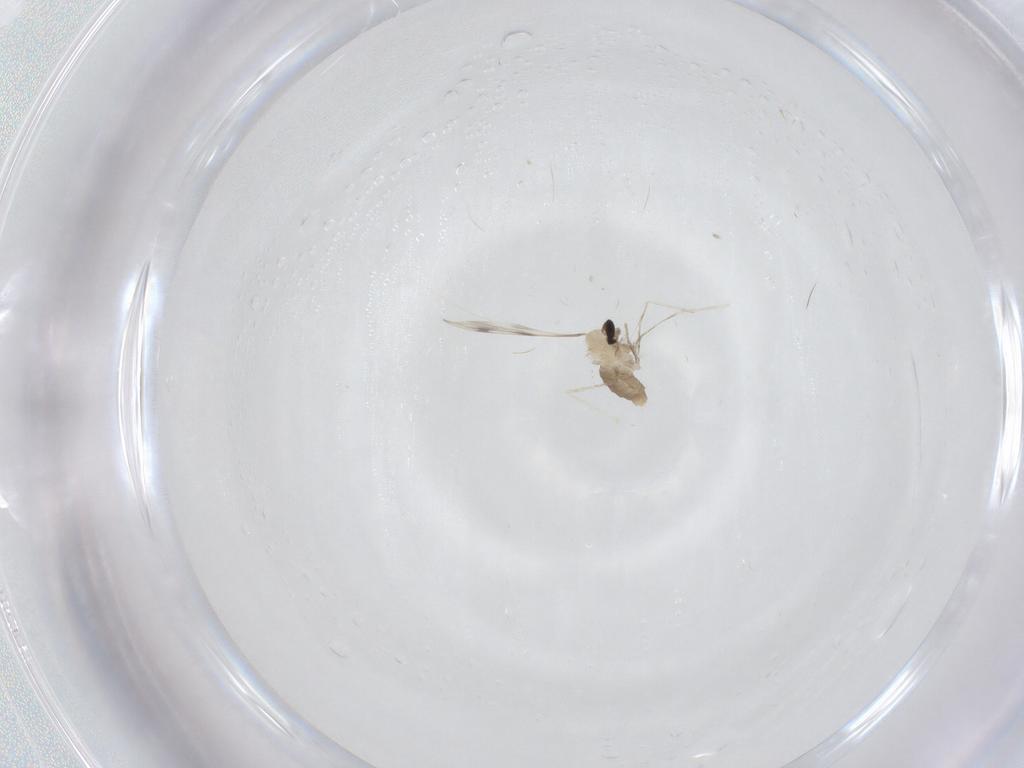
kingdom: Animalia
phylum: Arthropoda
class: Insecta
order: Diptera
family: Cecidomyiidae
